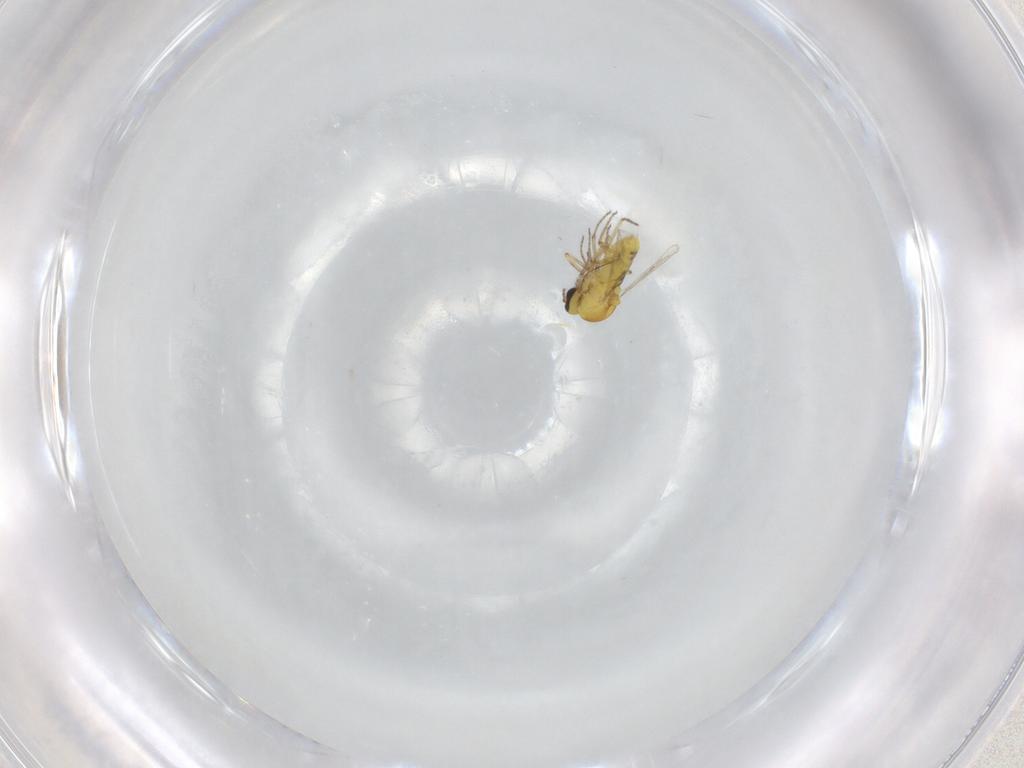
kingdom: Animalia
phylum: Arthropoda
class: Insecta
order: Diptera
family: Ceratopogonidae
